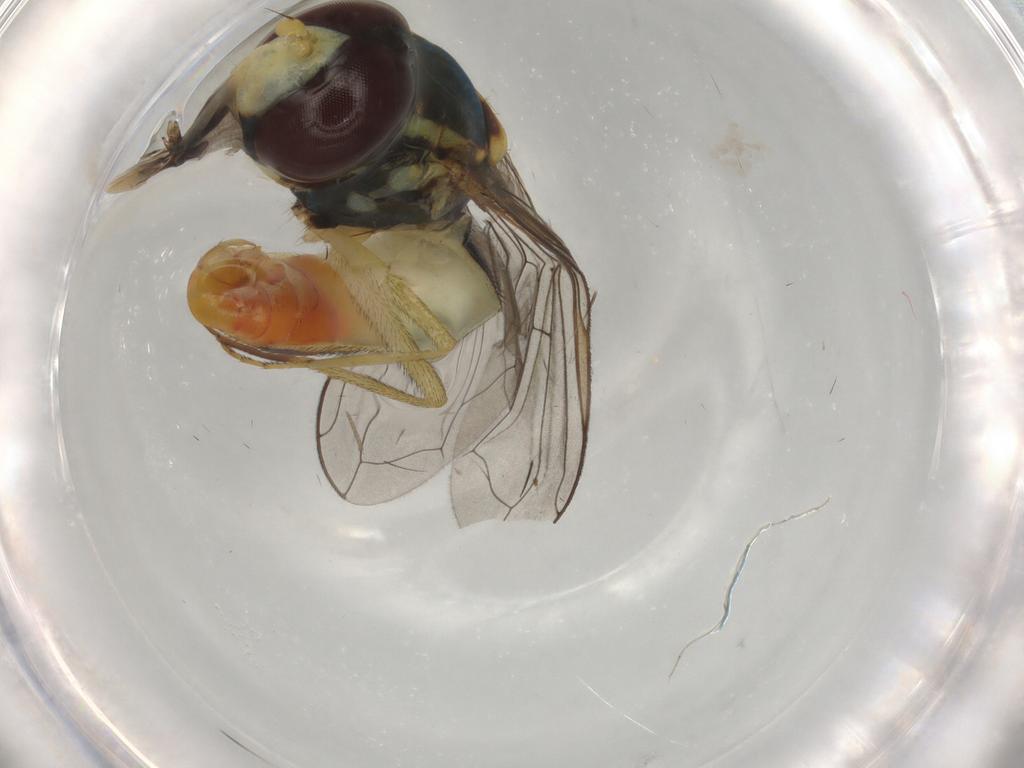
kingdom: Animalia
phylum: Arthropoda
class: Insecta
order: Diptera
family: Syrphidae
